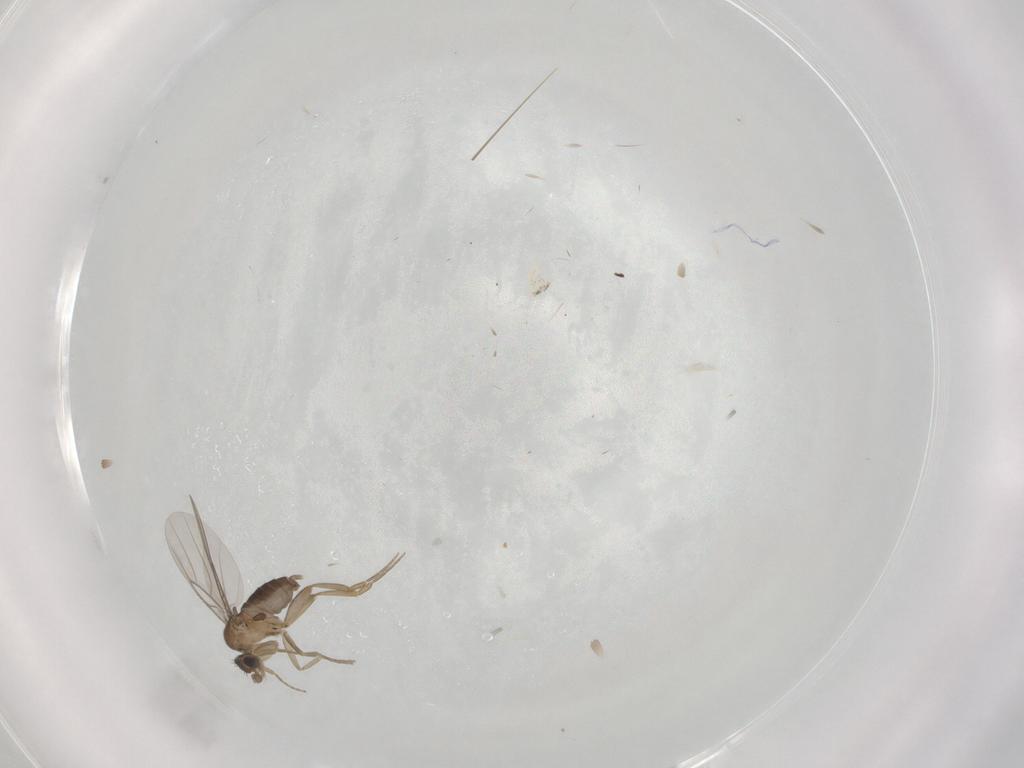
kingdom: Animalia
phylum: Arthropoda
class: Insecta
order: Diptera
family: Cecidomyiidae
